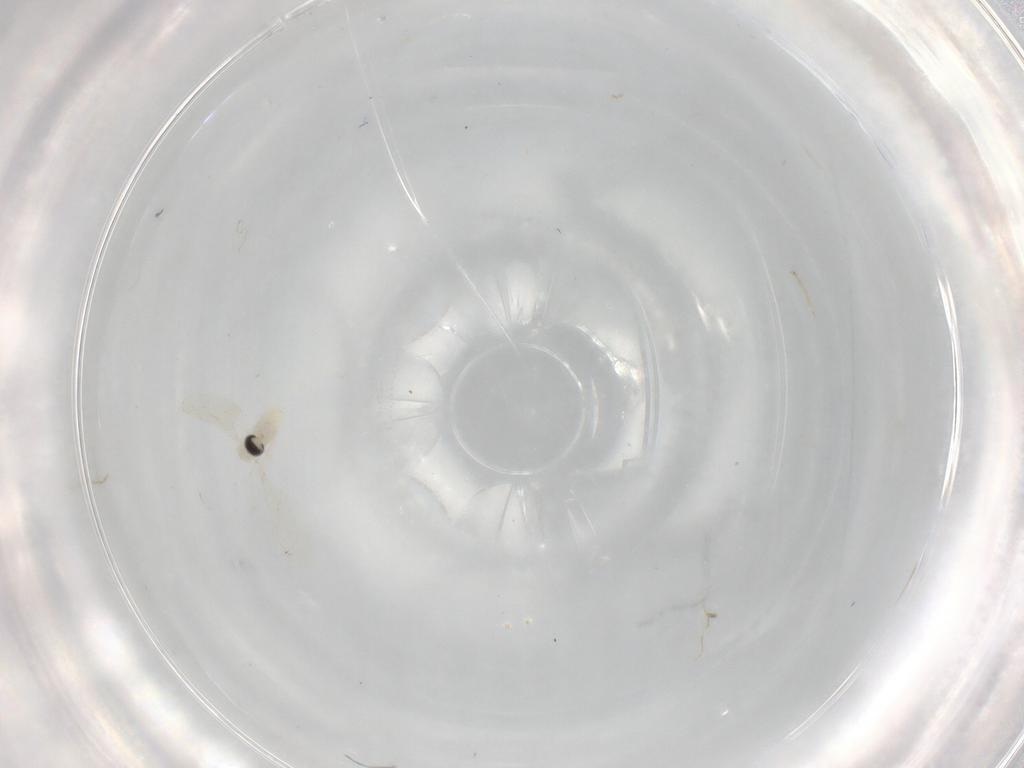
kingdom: Animalia
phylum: Arthropoda
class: Insecta
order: Diptera
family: Cecidomyiidae
